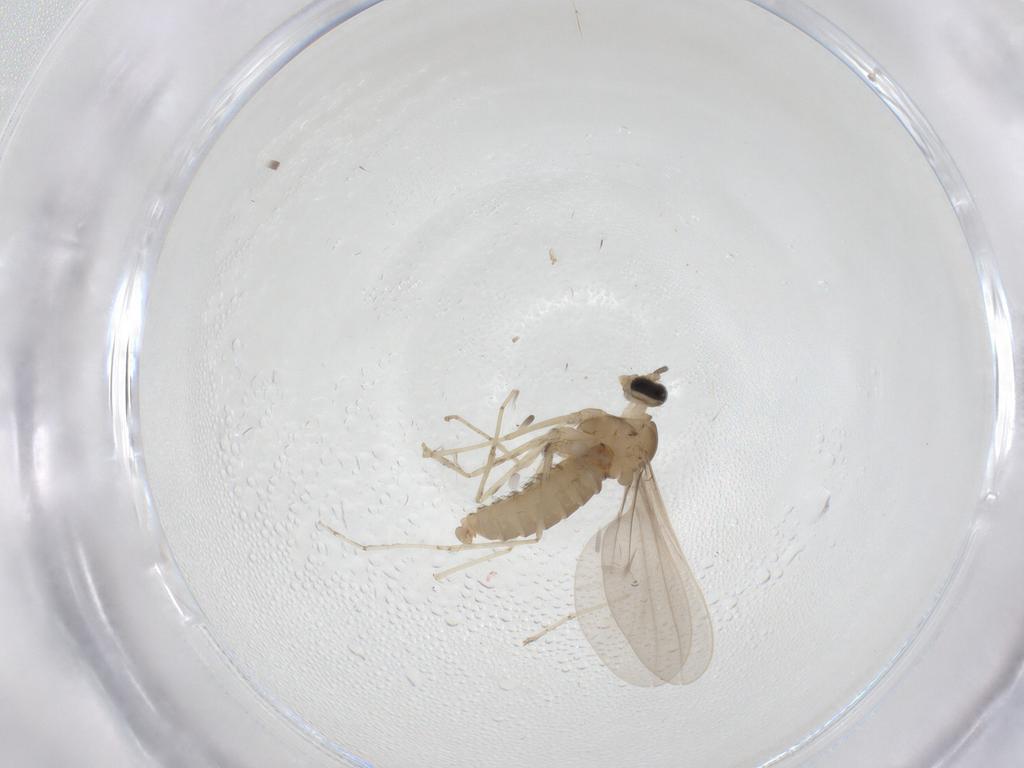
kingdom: Animalia
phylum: Arthropoda
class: Insecta
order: Diptera
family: Cecidomyiidae
